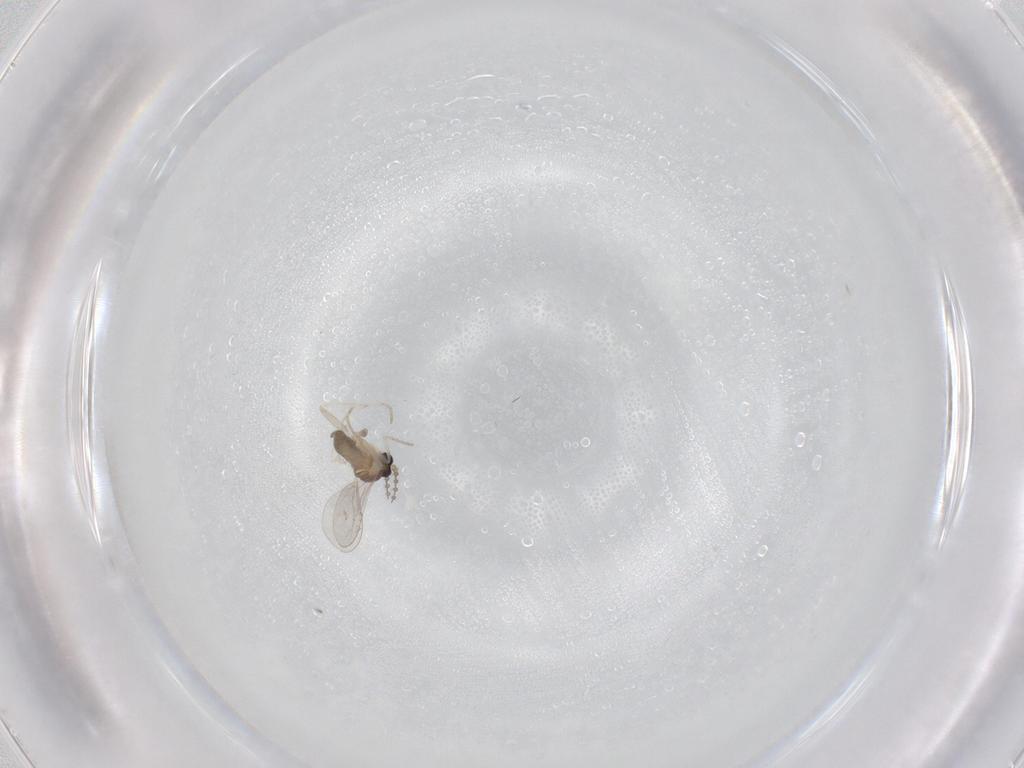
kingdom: Animalia
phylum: Arthropoda
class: Insecta
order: Diptera
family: Cecidomyiidae
